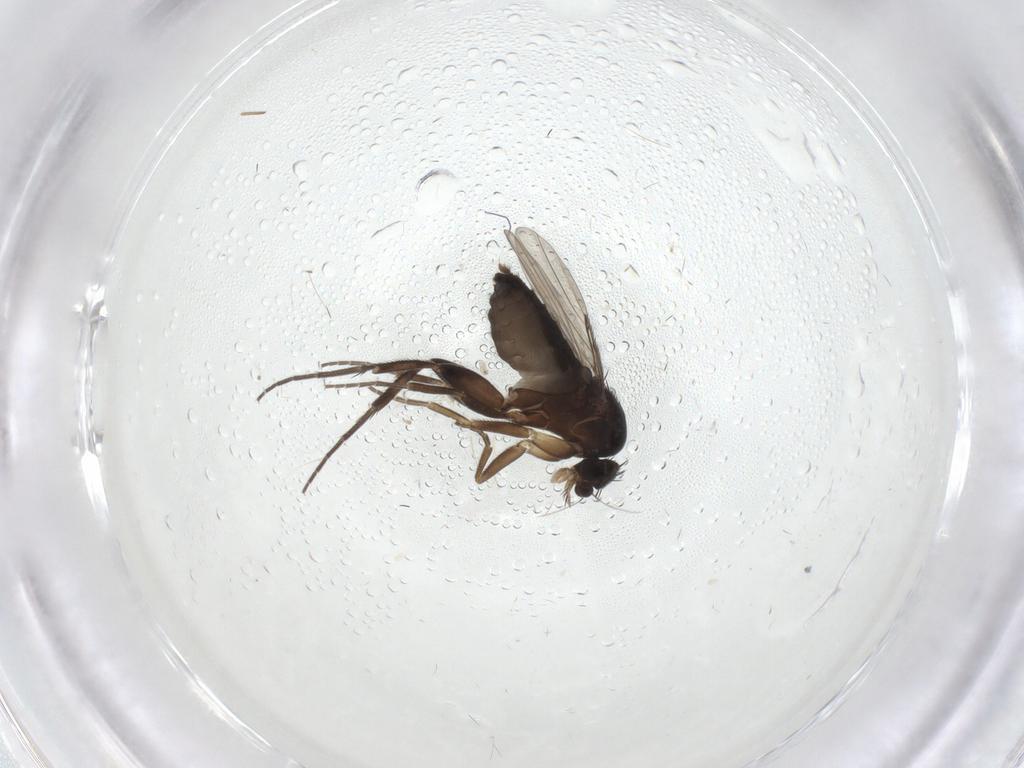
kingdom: Animalia
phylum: Arthropoda
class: Insecta
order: Diptera
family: Phoridae
